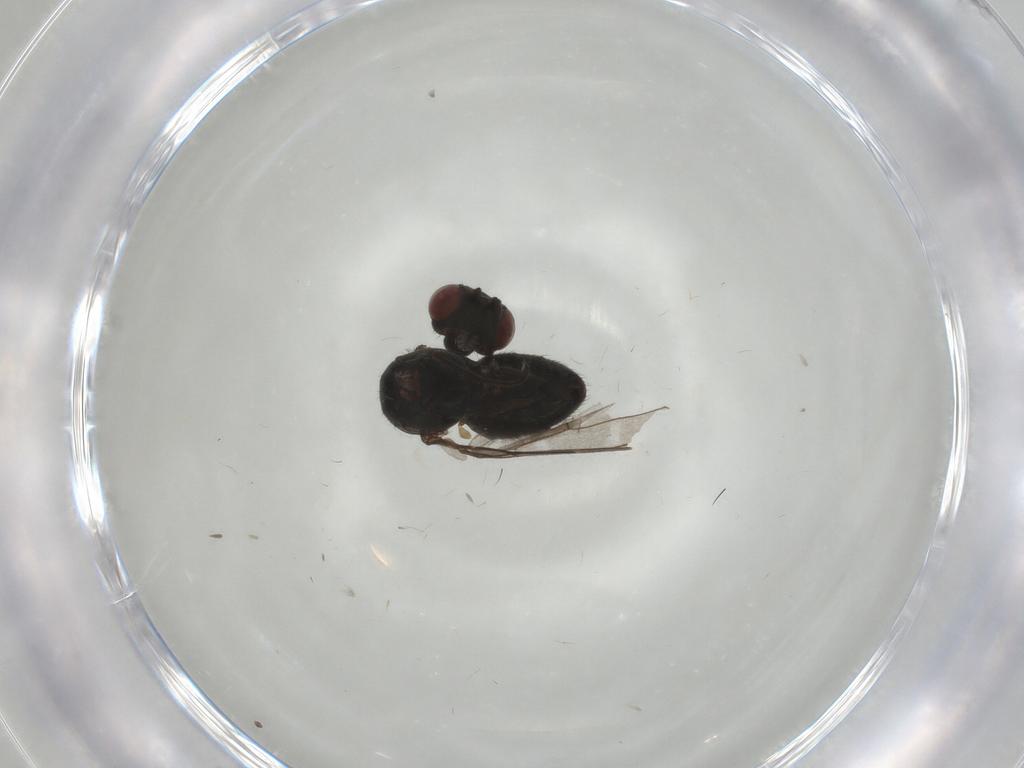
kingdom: Animalia
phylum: Arthropoda
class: Insecta
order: Diptera
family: Ephydridae
